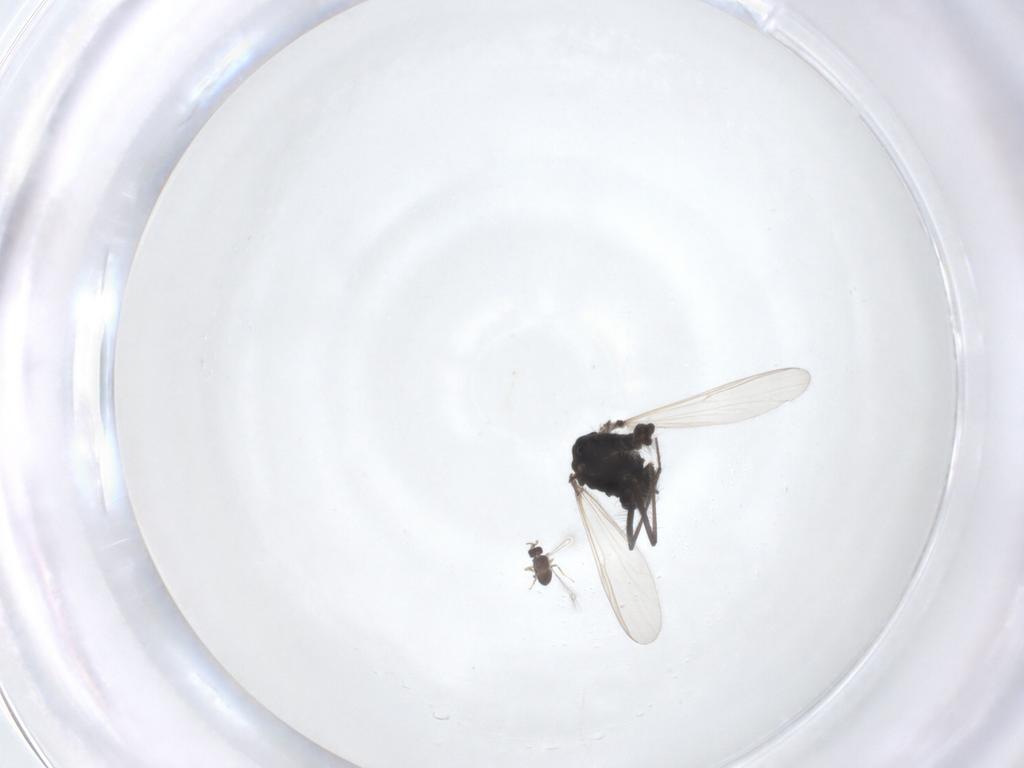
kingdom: Animalia
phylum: Arthropoda
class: Insecta
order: Diptera
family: Chironomidae
